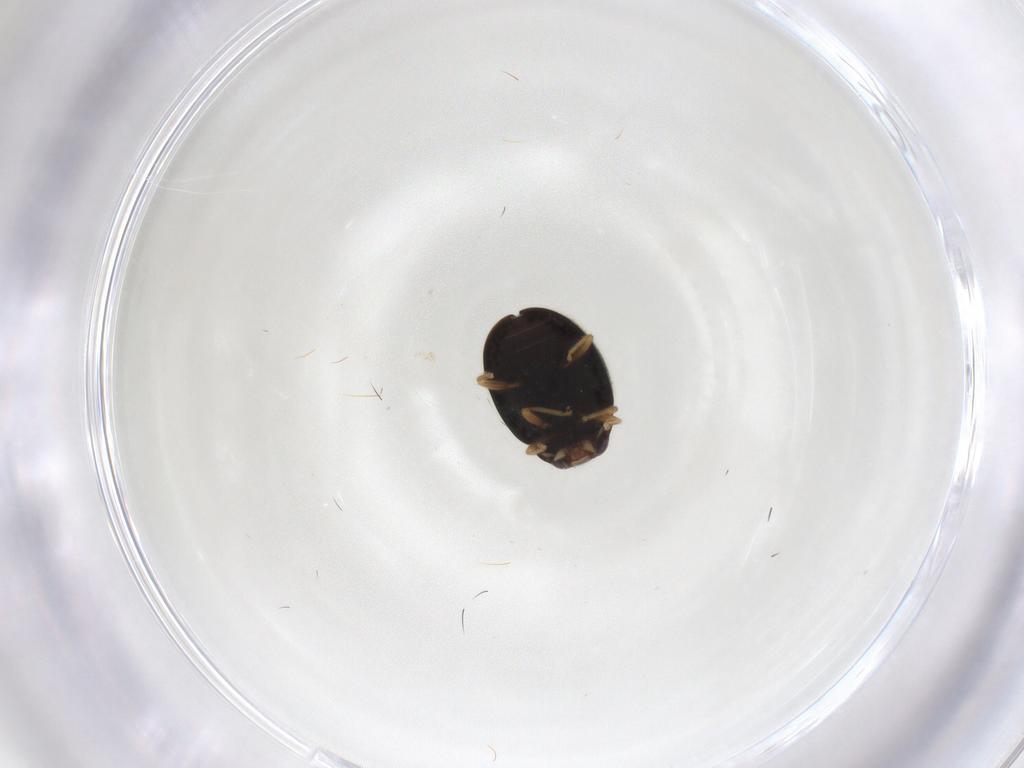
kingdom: Animalia
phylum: Arthropoda
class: Insecta
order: Coleoptera
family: Coccinellidae
